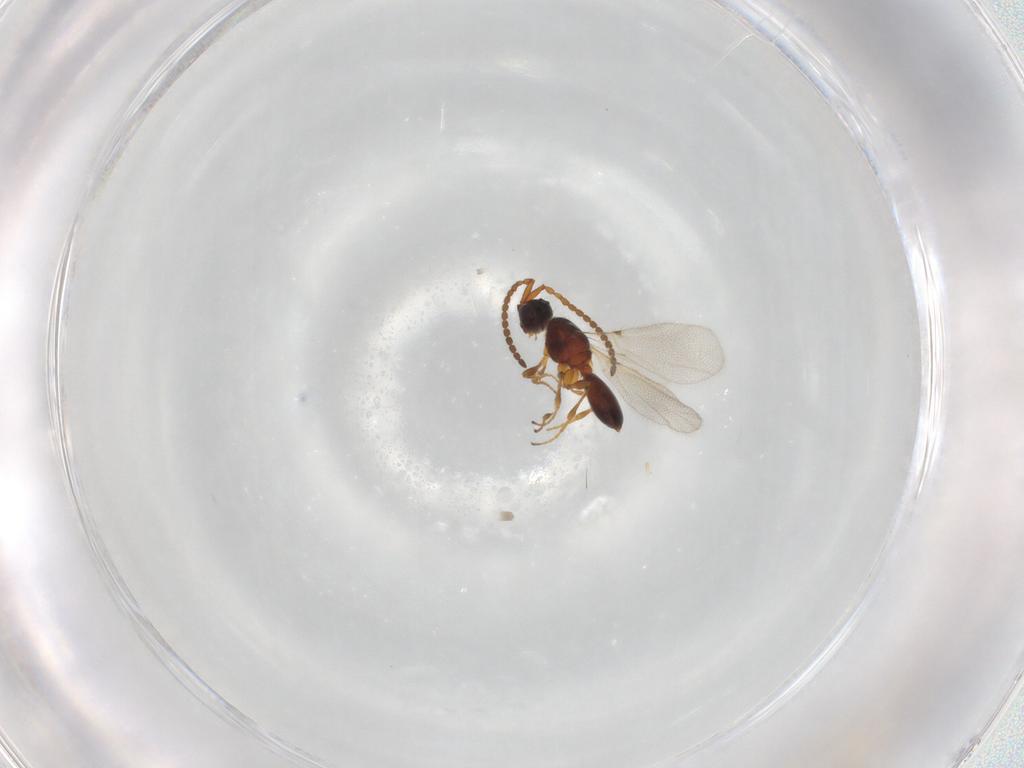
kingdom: Animalia
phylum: Arthropoda
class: Insecta
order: Hymenoptera
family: Diapriidae
